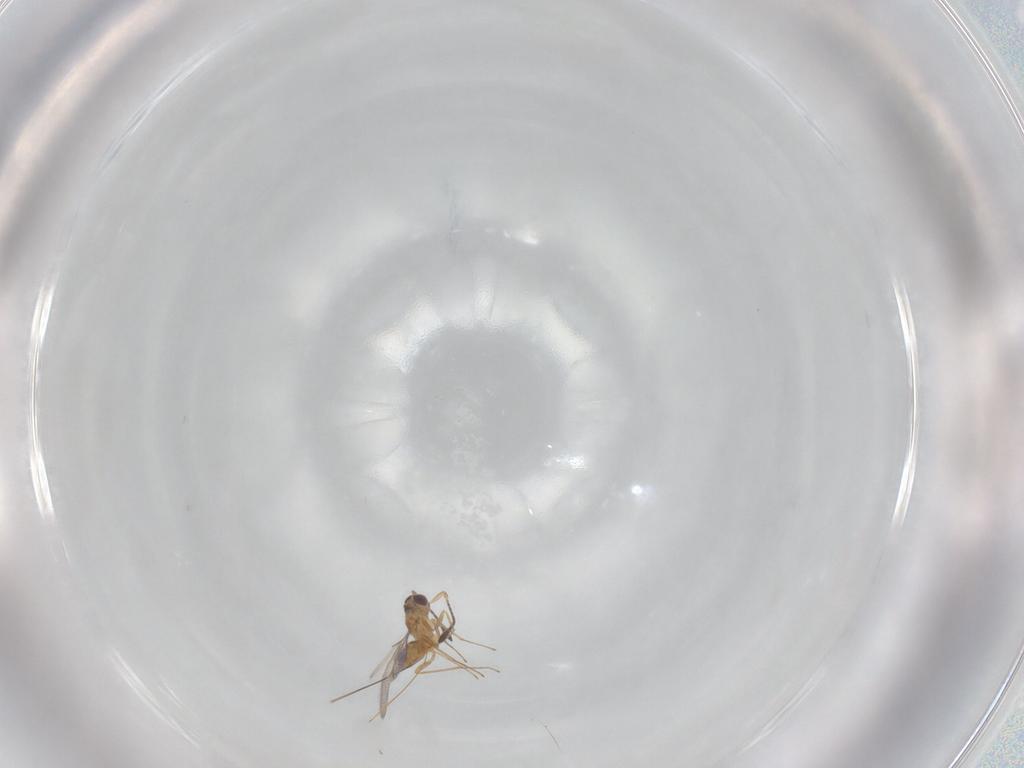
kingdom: Animalia
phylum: Arthropoda
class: Insecta
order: Hymenoptera
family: Mymaridae
